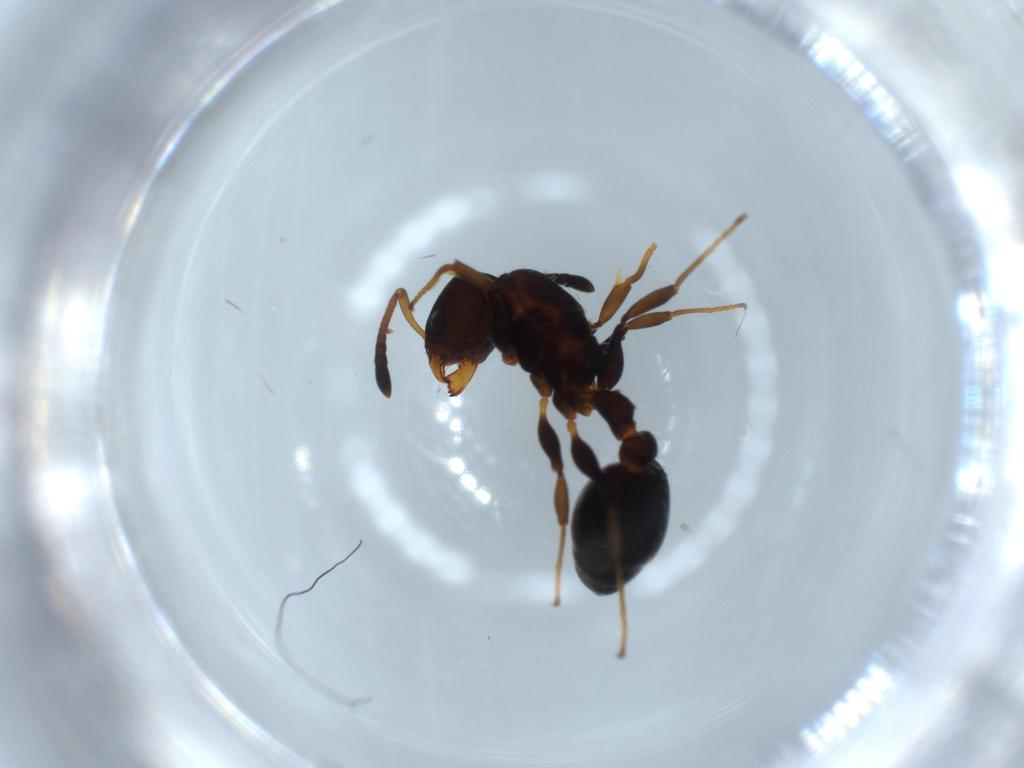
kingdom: Animalia
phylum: Arthropoda
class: Insecta
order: Hymenoptera
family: Formicidae
